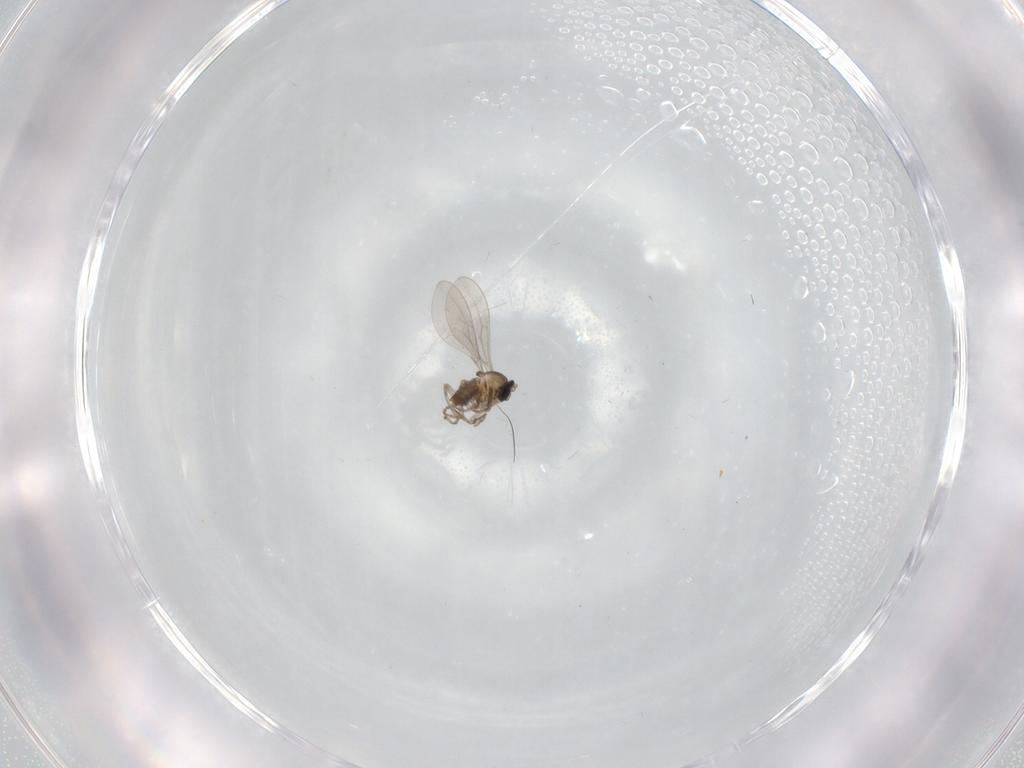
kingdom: Animalia
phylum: Arthropoda
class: Insecta
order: Diptera
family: Cecidomyiidae
